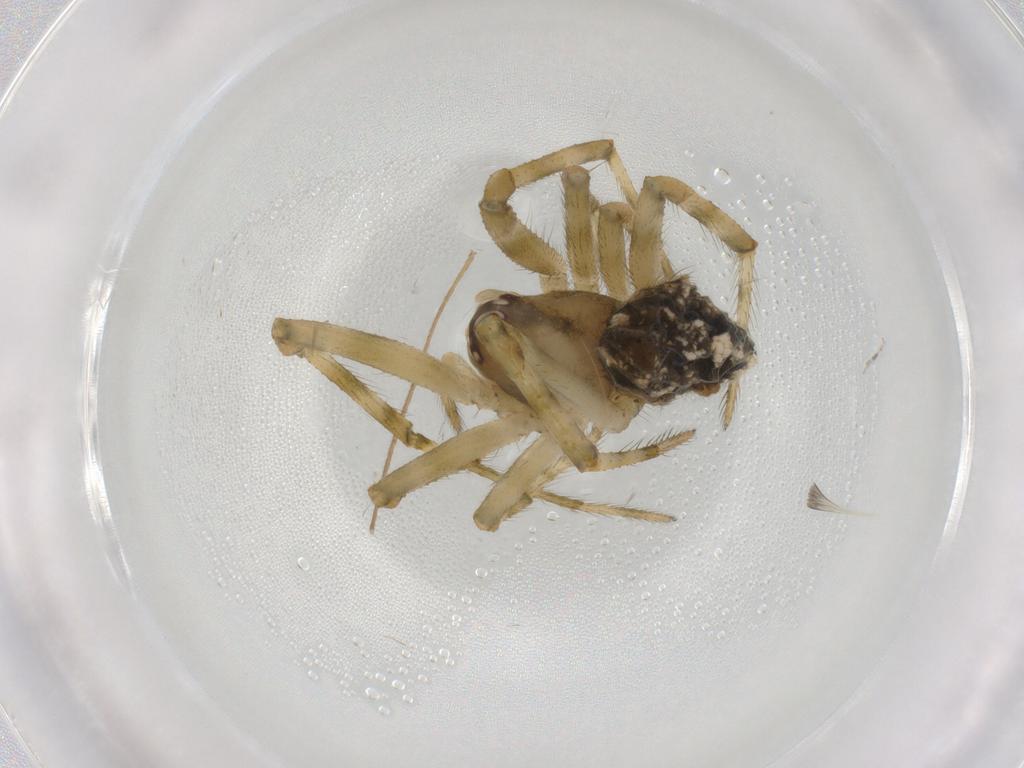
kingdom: Animalia
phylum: Arthropoda
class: Arachnida
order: Araneae
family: Theridiidae
